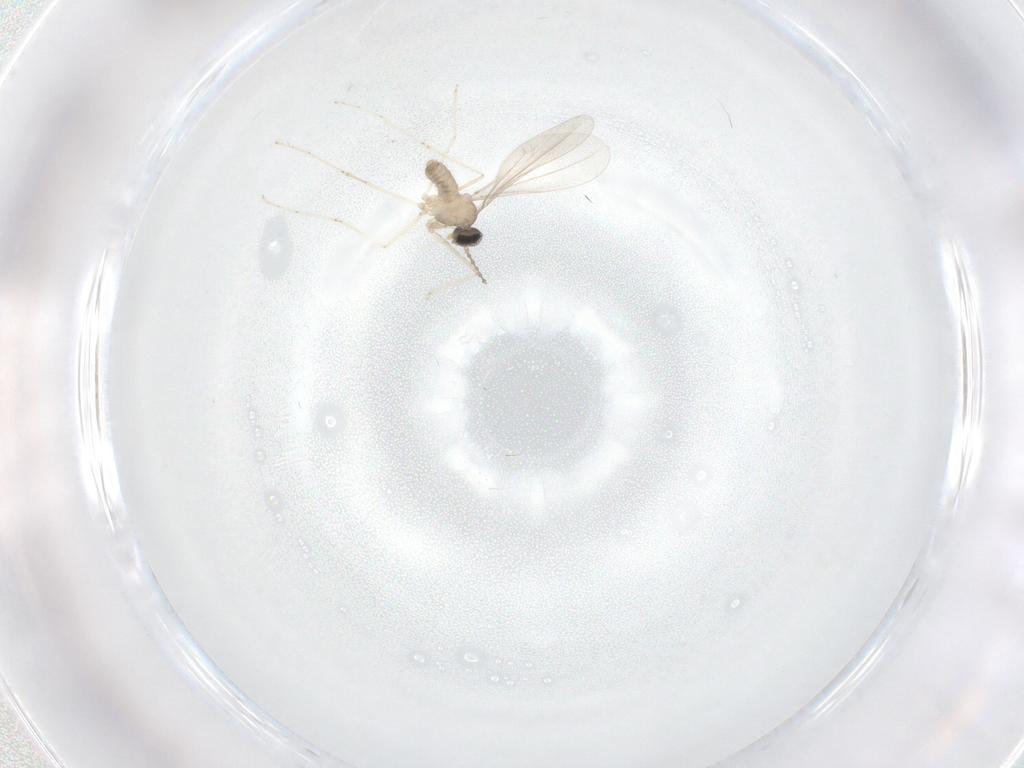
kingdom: Animalia
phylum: Arthropoda
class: Insecta
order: Diptera
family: Cecidomyiidae
